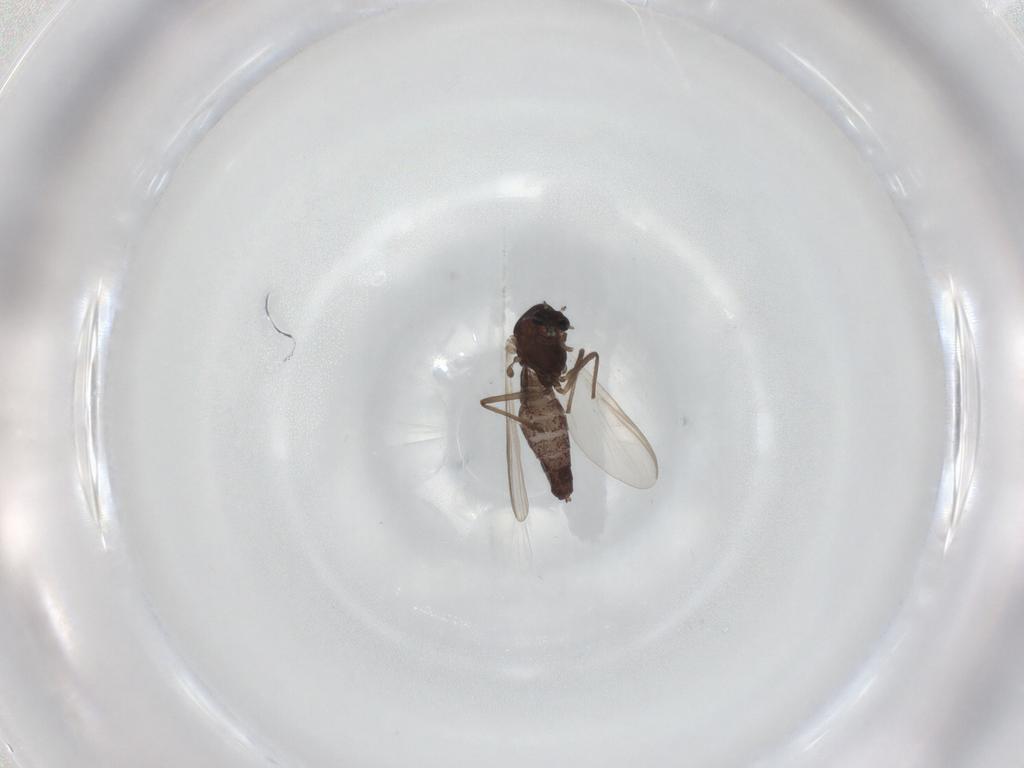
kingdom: Animalia
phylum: Arthropoda
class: Insecta
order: Diptera
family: Chironomidae
